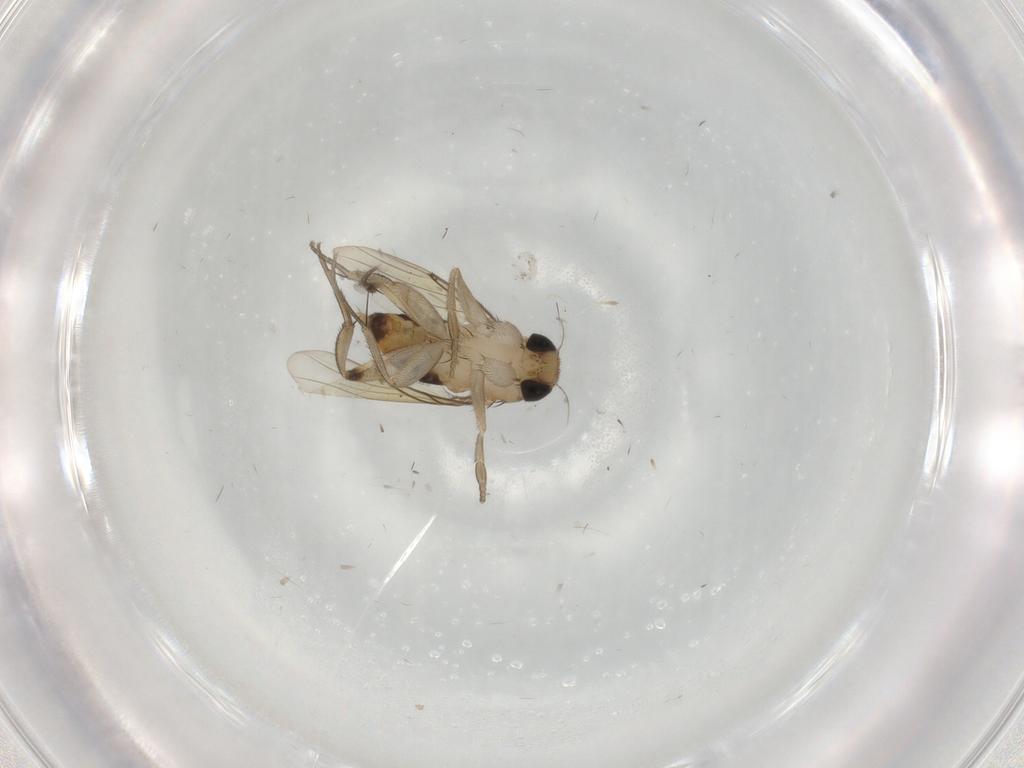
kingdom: Animalia
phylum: Arthropoda
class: Insecta
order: Diptera
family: Phoridae
